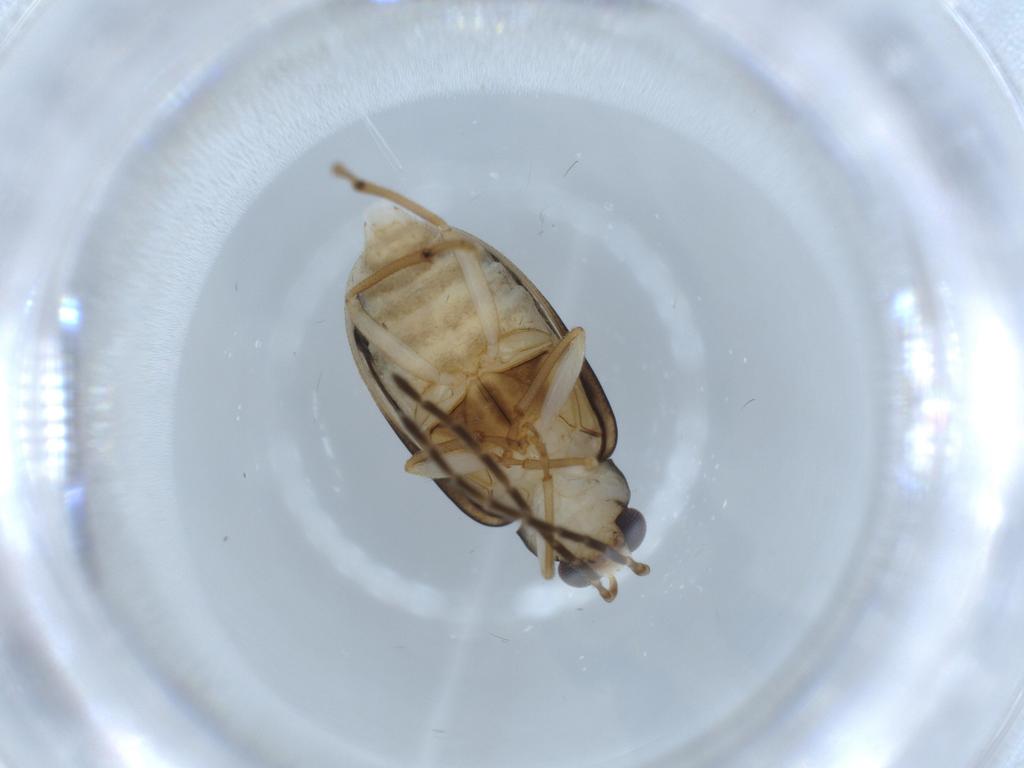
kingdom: Animalia
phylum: Arthropoda
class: Insecta
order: Coleoptera
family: Chrysomelidae
